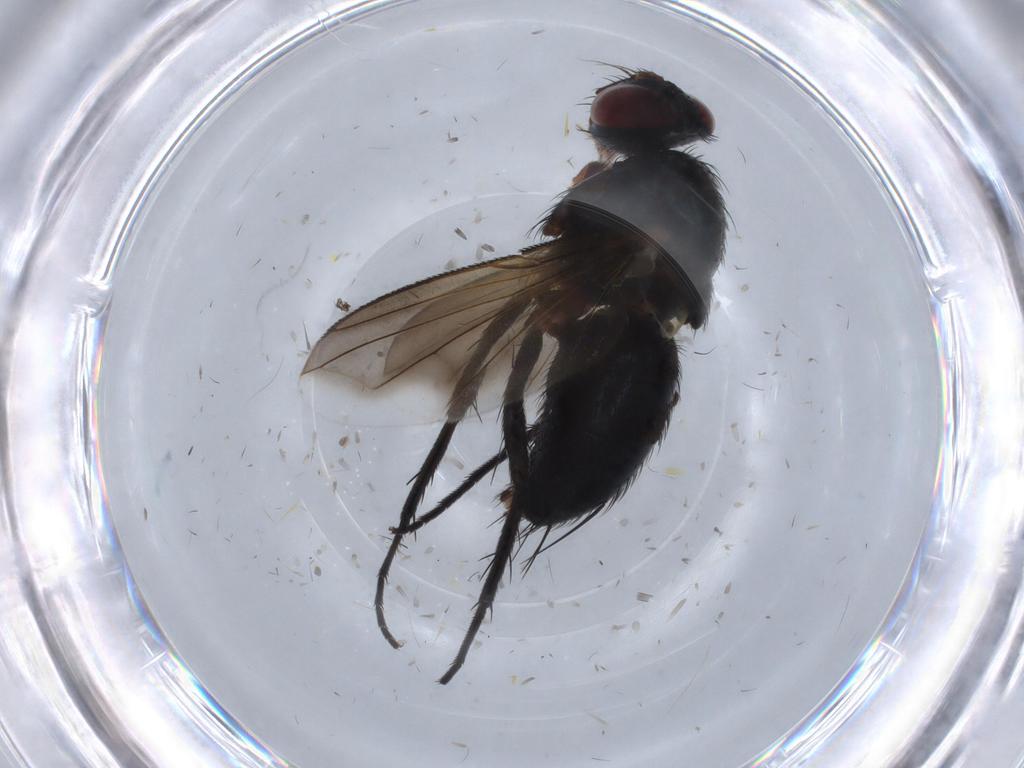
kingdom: Animalia
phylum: Arthropoda
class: Insecta
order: Diptera
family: Tachinidae
